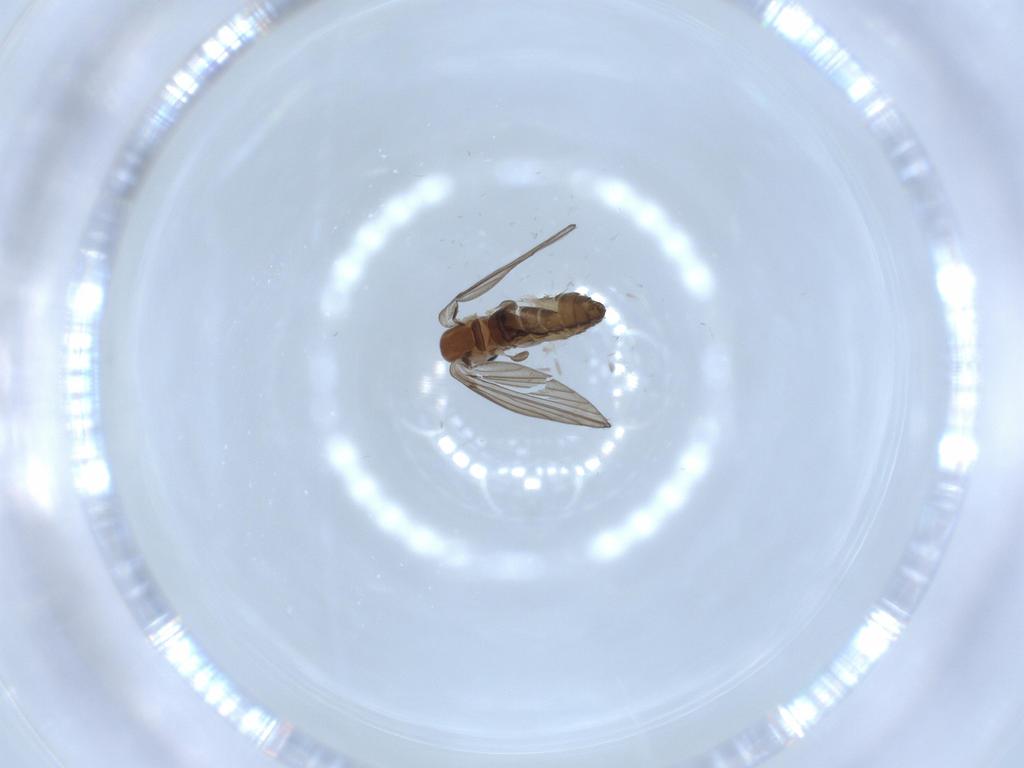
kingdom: Animalia
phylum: Arthropoda
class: Insecta
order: Diptera
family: Psychodidae
